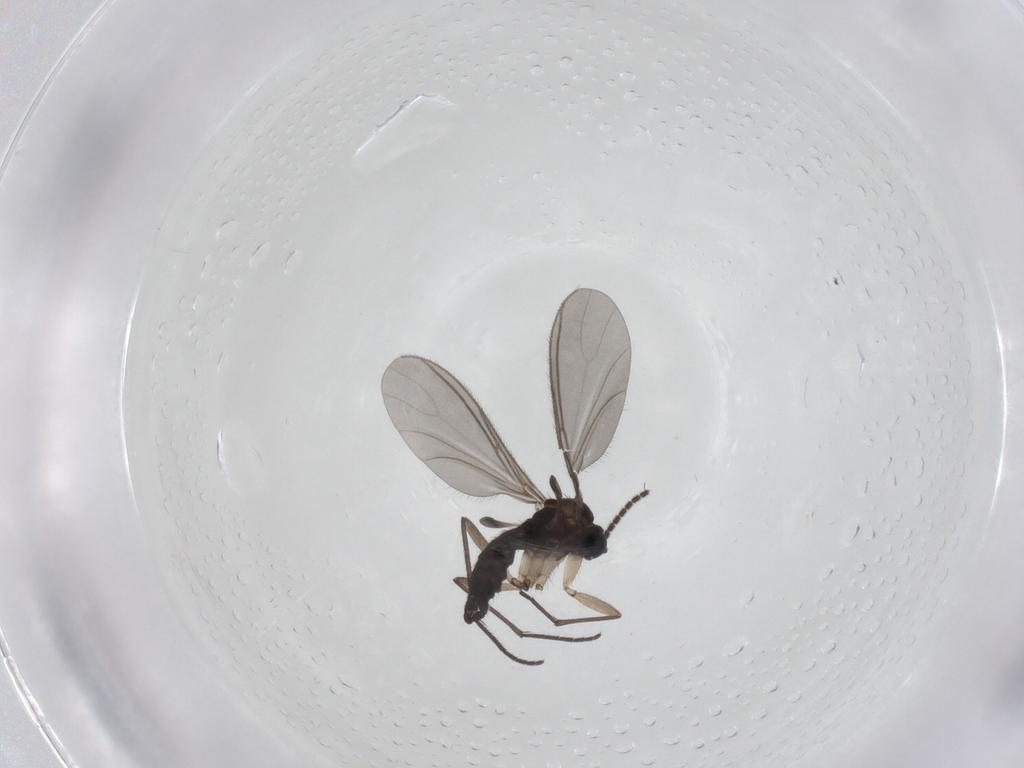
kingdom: Animalia
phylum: Arthropoda
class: Insecta
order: Diptera
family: Sciaridae
